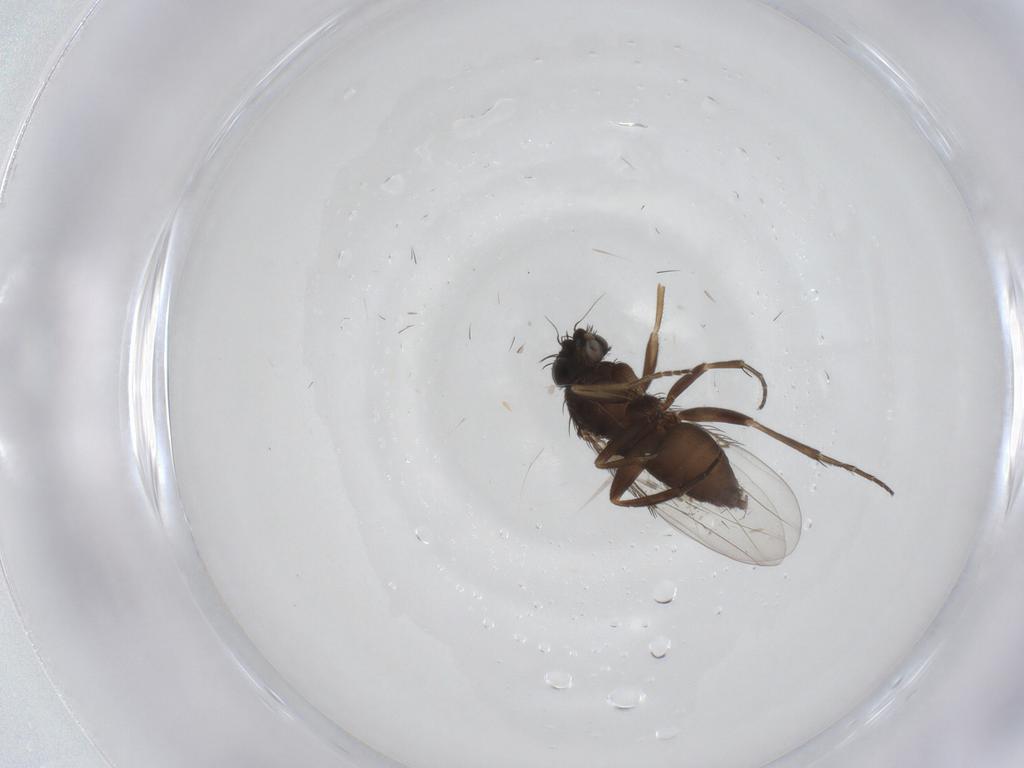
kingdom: Animalia
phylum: Arthropoda
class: Insecta
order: Diptera
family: Phoridae
